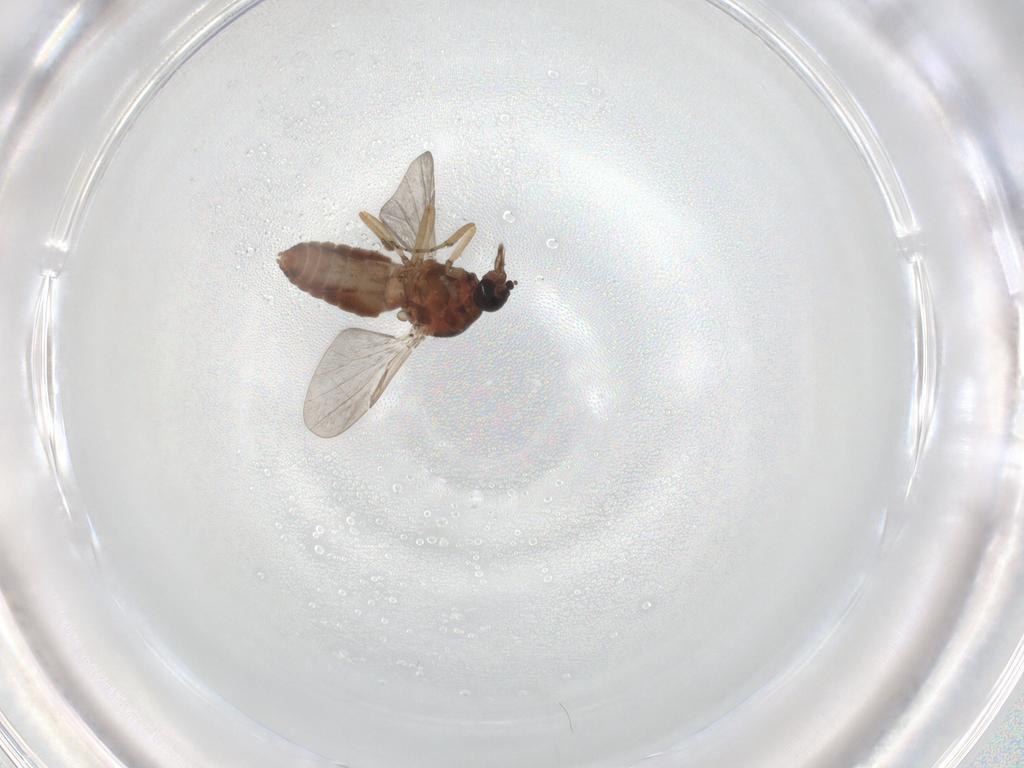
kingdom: Animalia
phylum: Arthropoda
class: Insecta
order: Diptera
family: Ceratopogonidae
